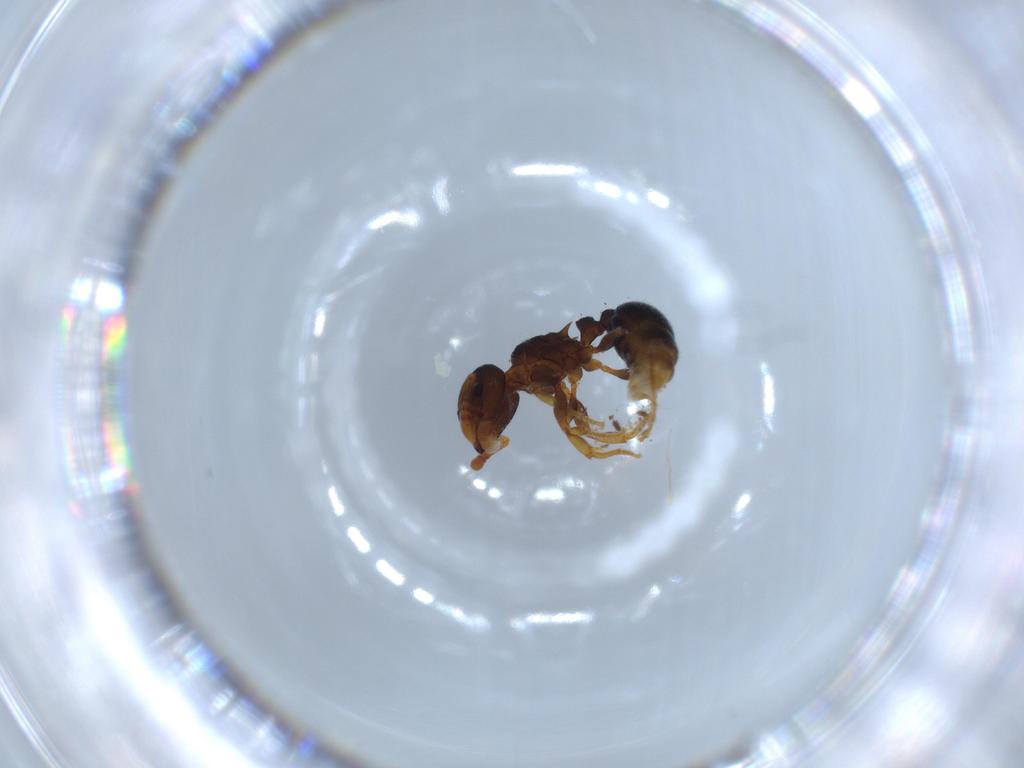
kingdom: Animalia
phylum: Arthropoda
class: Insecta
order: Hymenoptera
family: Formicidae
